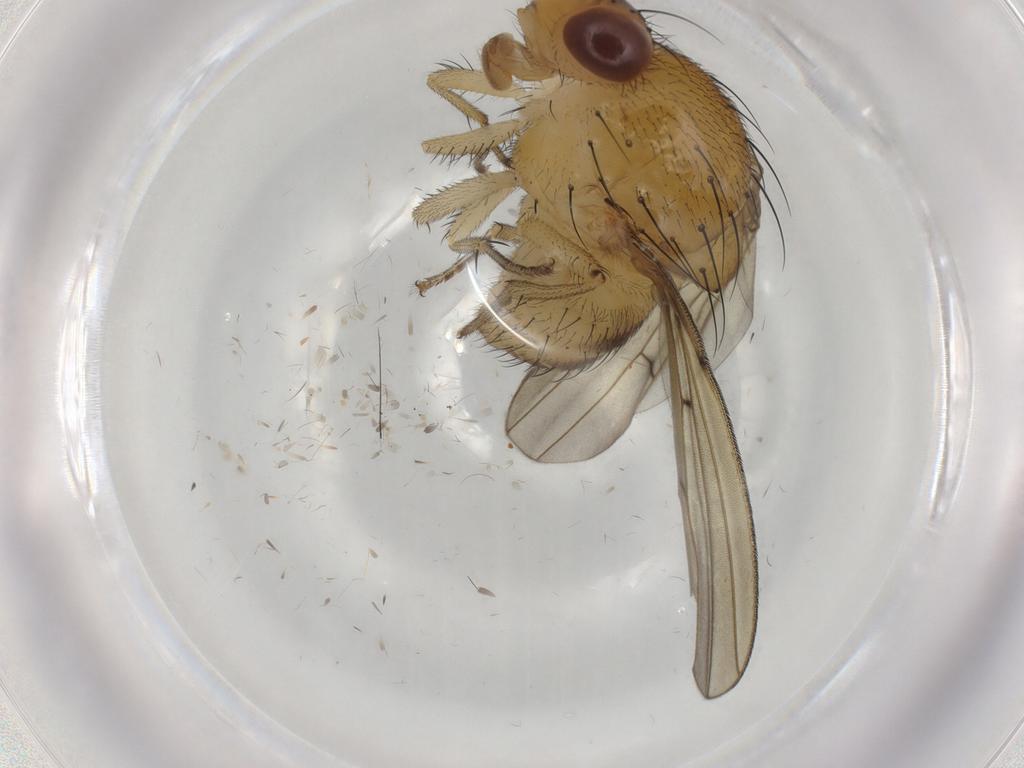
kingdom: Animalia
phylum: Arthropoda
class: Insecta
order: Diptera
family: Chironomidae
